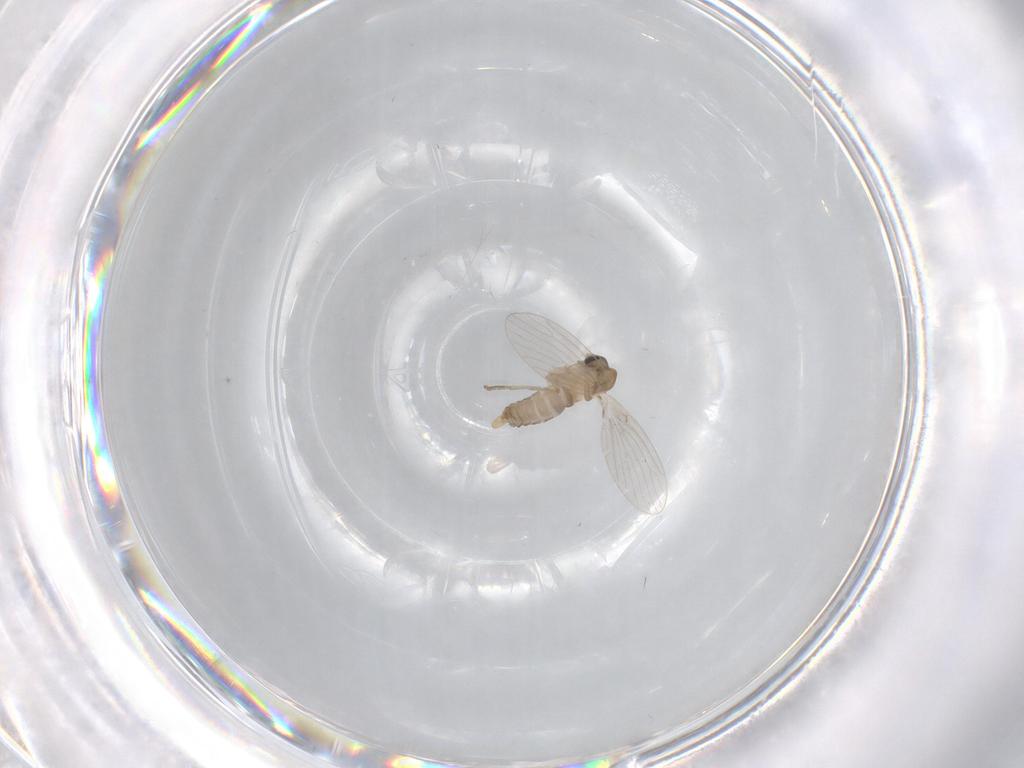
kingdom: Animalia
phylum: Arthropoda
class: Insecta
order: Diptera
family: Psychodidae
